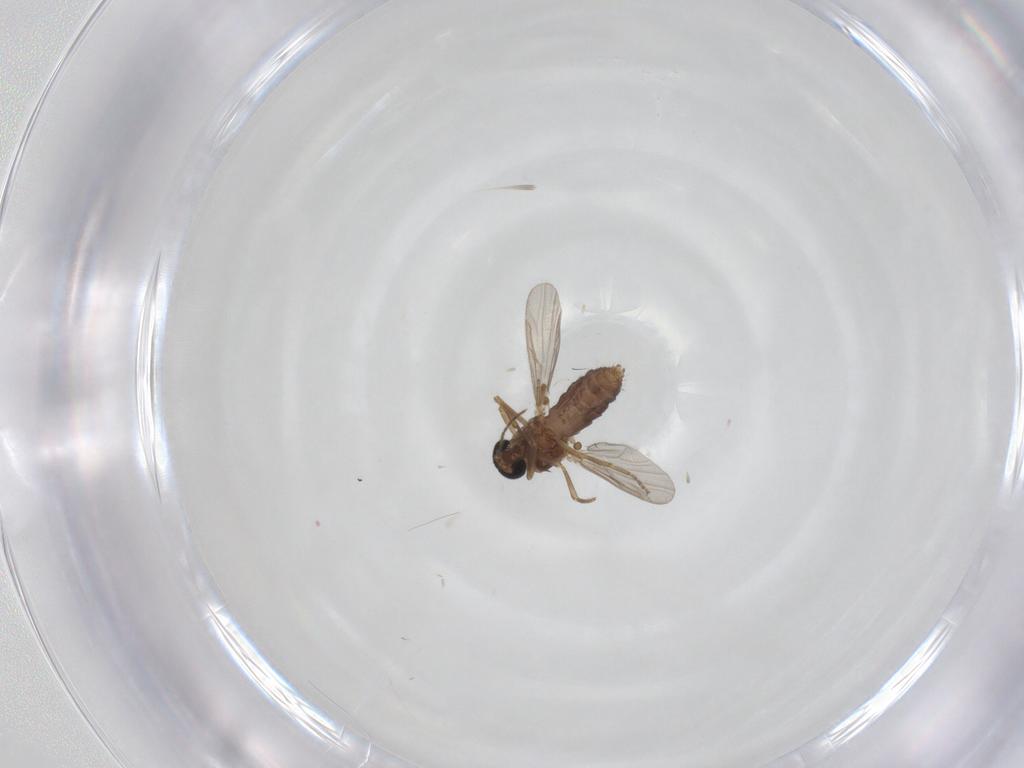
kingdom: Animalia
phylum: Arthropoda
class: Insecta
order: Diptera
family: Ceratopogonidae
